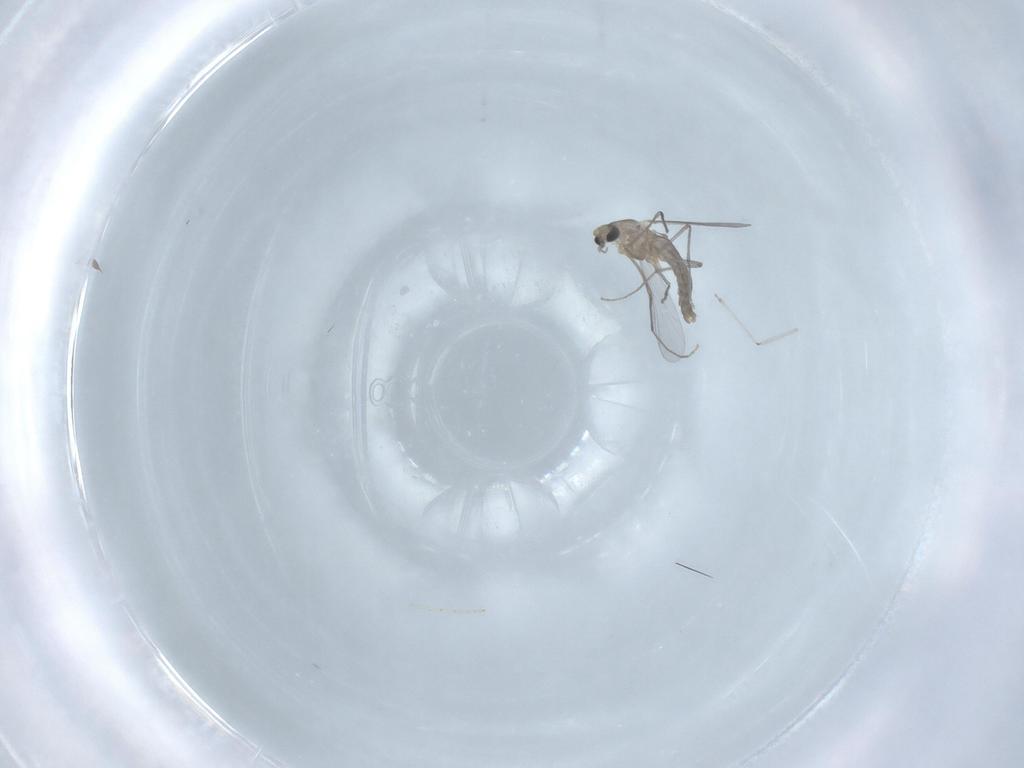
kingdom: Animalia
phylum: Arthropoda
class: Insecta
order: Diptera
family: Chironomidae
